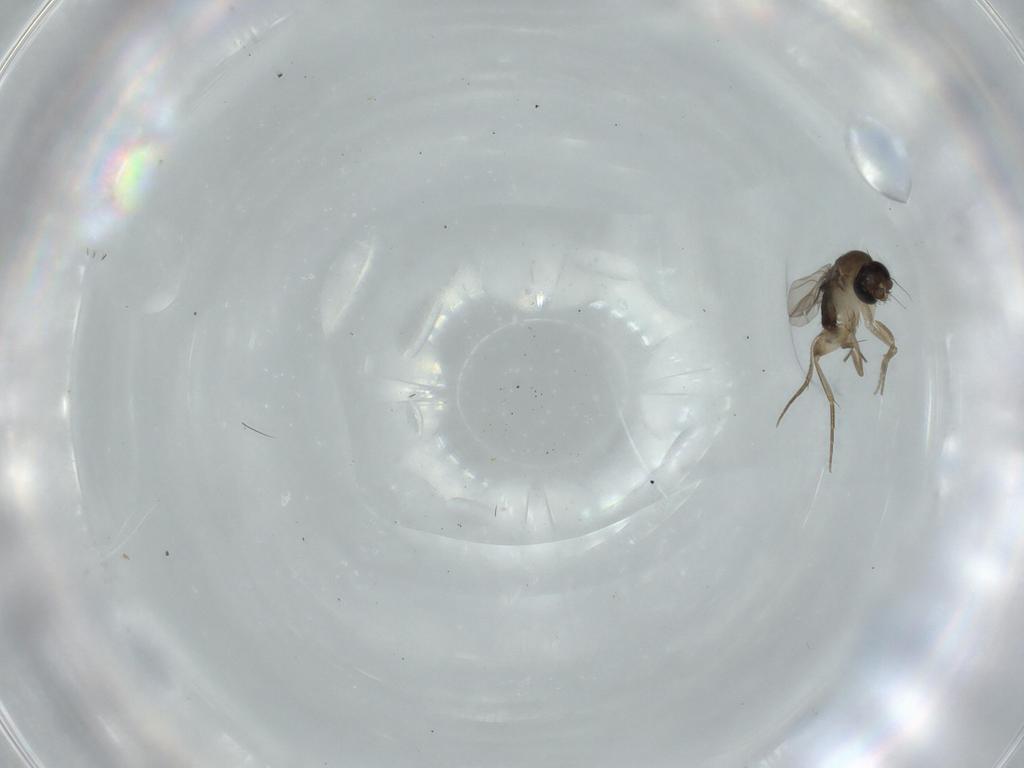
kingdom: Animalia
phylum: Arthropoda
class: Insecta
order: Diptera
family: Phoridae
